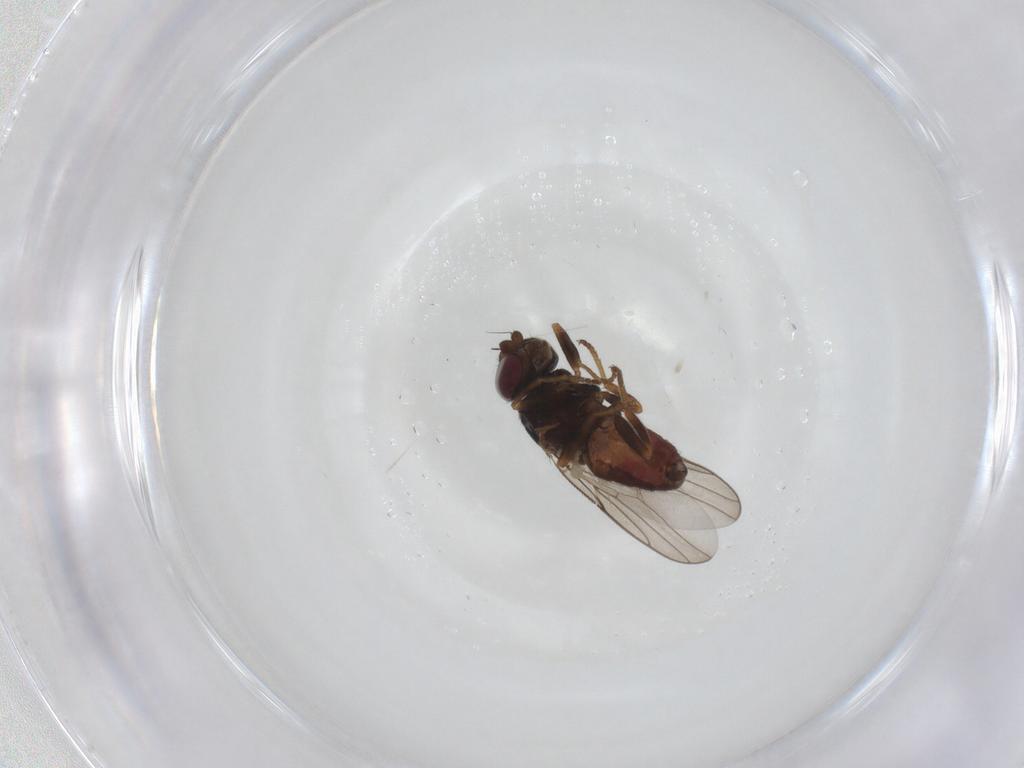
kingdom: Animalia
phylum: Arthropoda
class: Insecta
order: Diptera
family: Chloropidae
